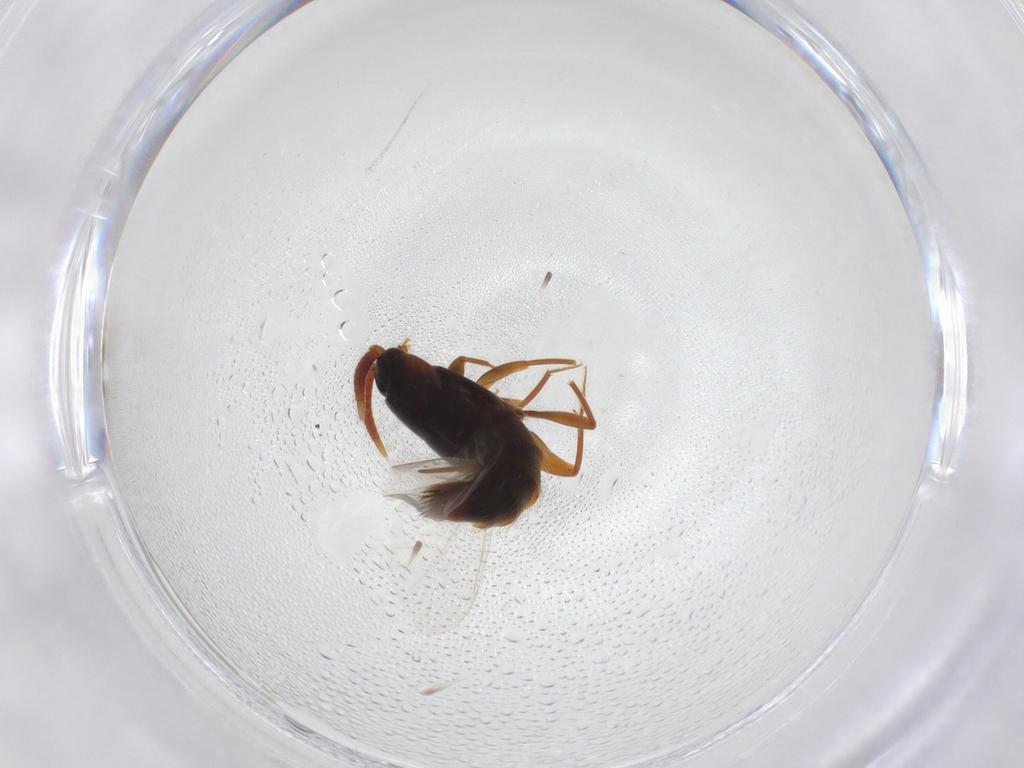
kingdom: Animalia
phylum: Arthropoda
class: Insecta
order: Coleoptera
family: Staphylinidae
